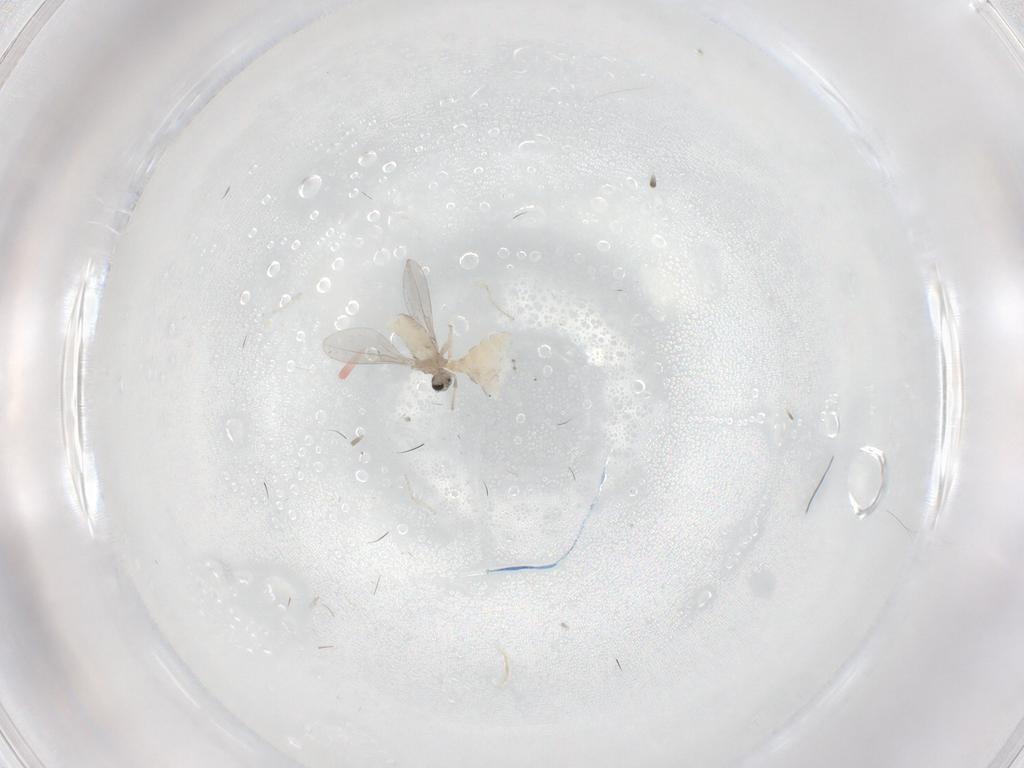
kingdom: Animalia
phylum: Arthropoda
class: Insecta
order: Diptera
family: Cecidomyiidae
